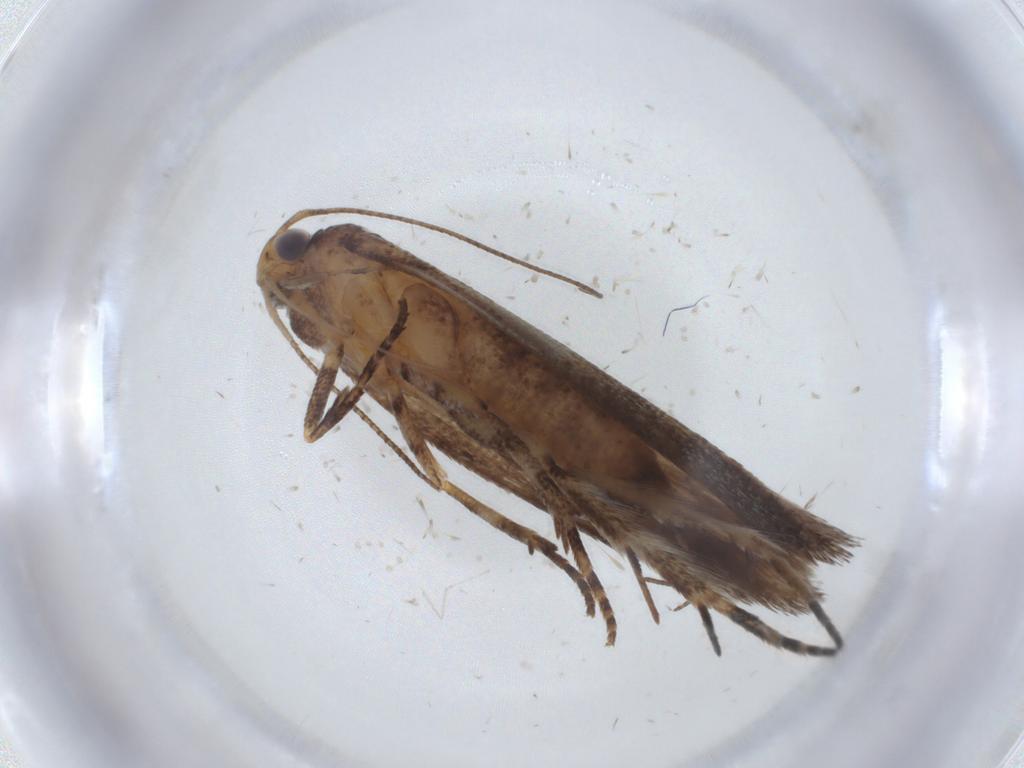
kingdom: Animalia
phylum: Arthropoda
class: Insecta
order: Lepidoptera
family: Gelechiidae
